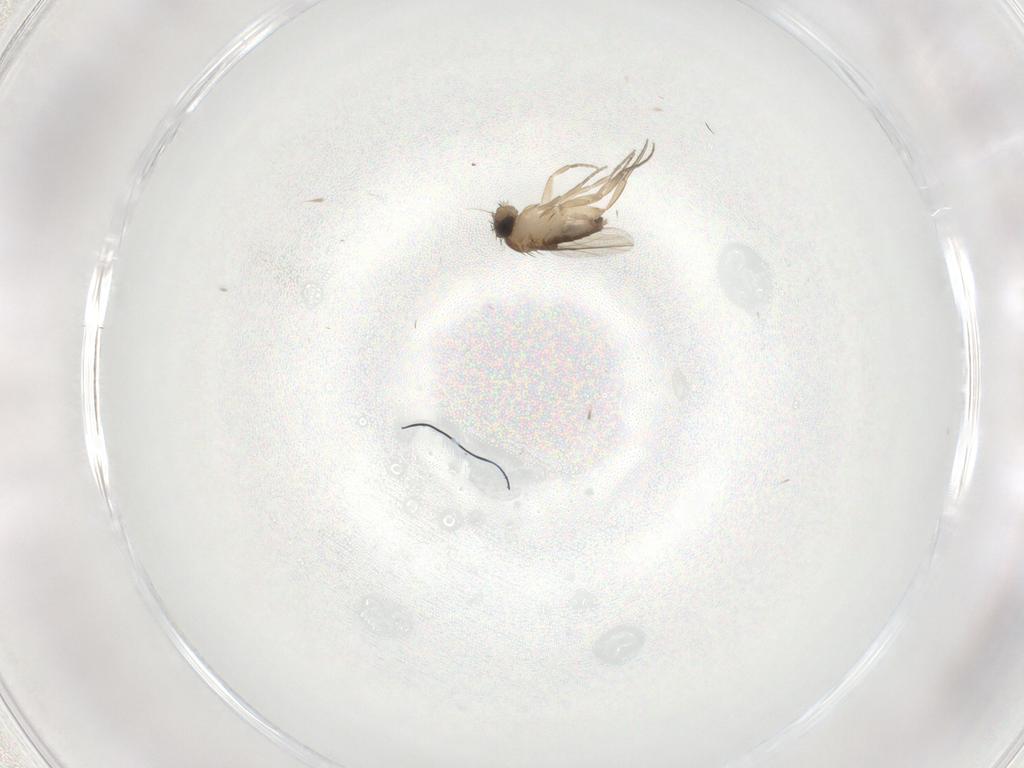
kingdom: Animalia
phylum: Arthropoda
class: Insecta
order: Diptera
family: Phoridae
